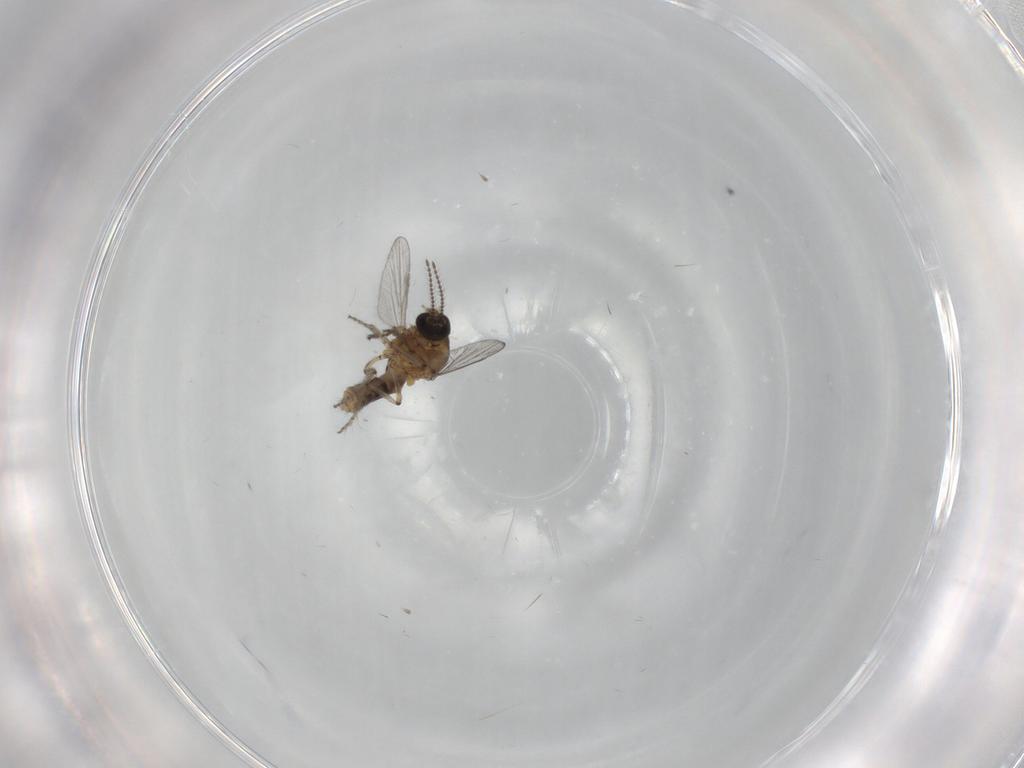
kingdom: Animalia
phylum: Arthropoda
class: Insecta
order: Diptera
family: Ceratopogonidae
